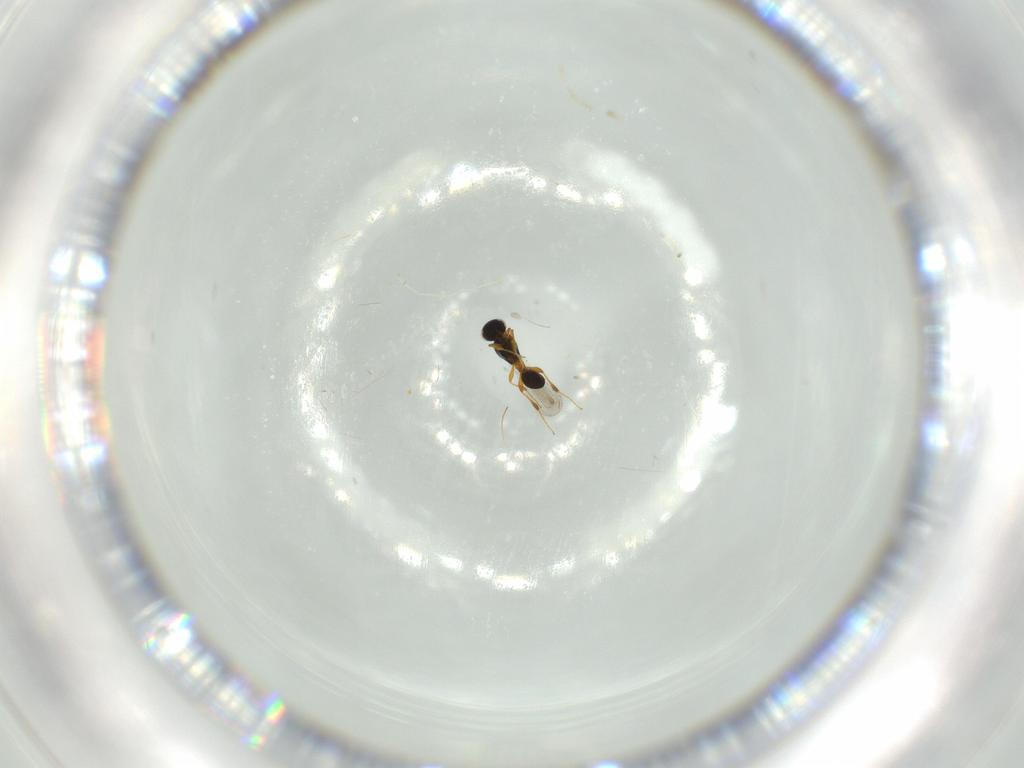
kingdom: Animalia
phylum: Arthropoda
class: Insecta
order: Hymenoptera
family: Platygastridae
